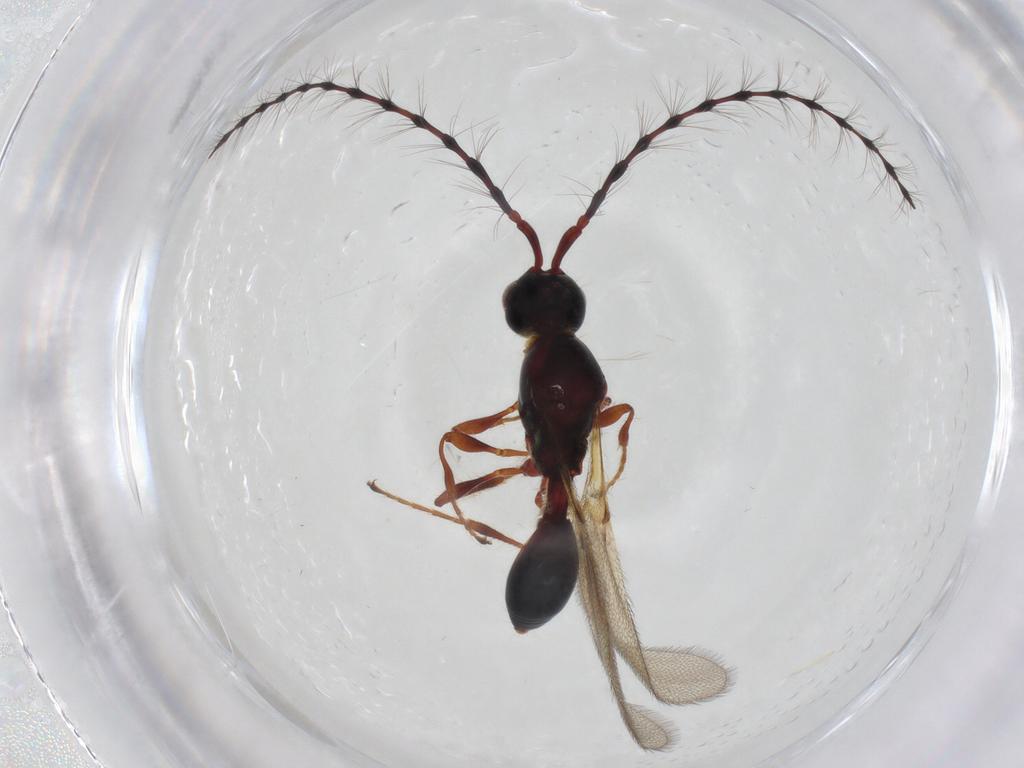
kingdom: Animalia
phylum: Arthropoda
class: Insecta
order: Hymenoptera
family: Diapriidae
